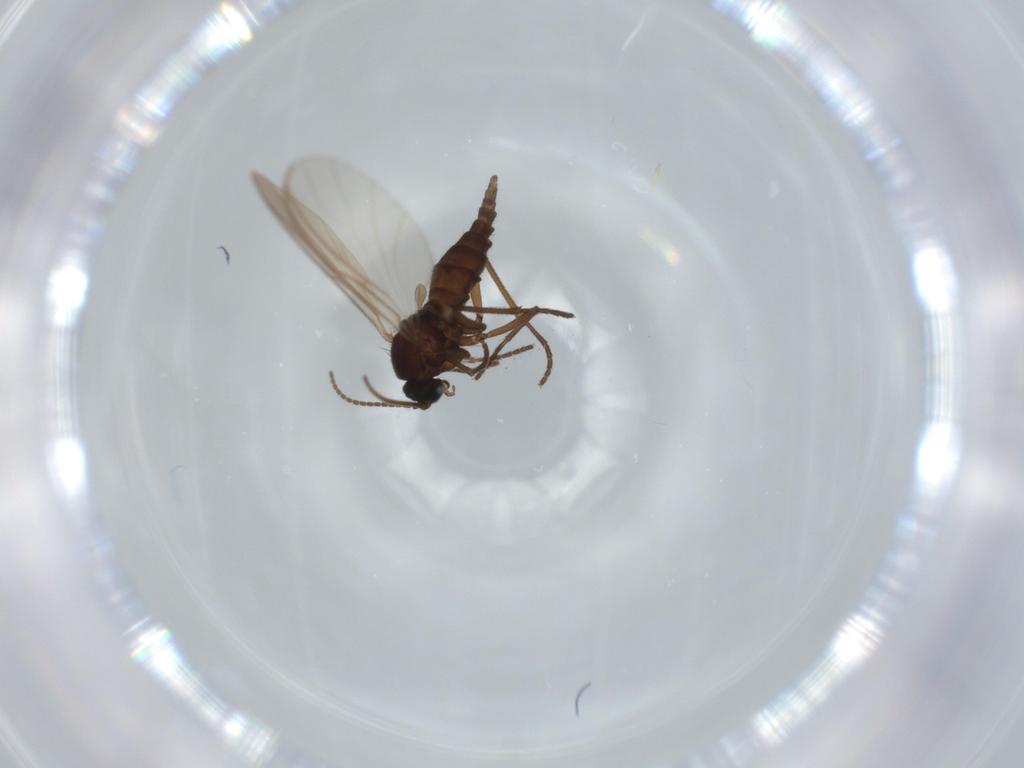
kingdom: Animalia
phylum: Arthropoda
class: Insecta
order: Diptera
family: Sciaridae
